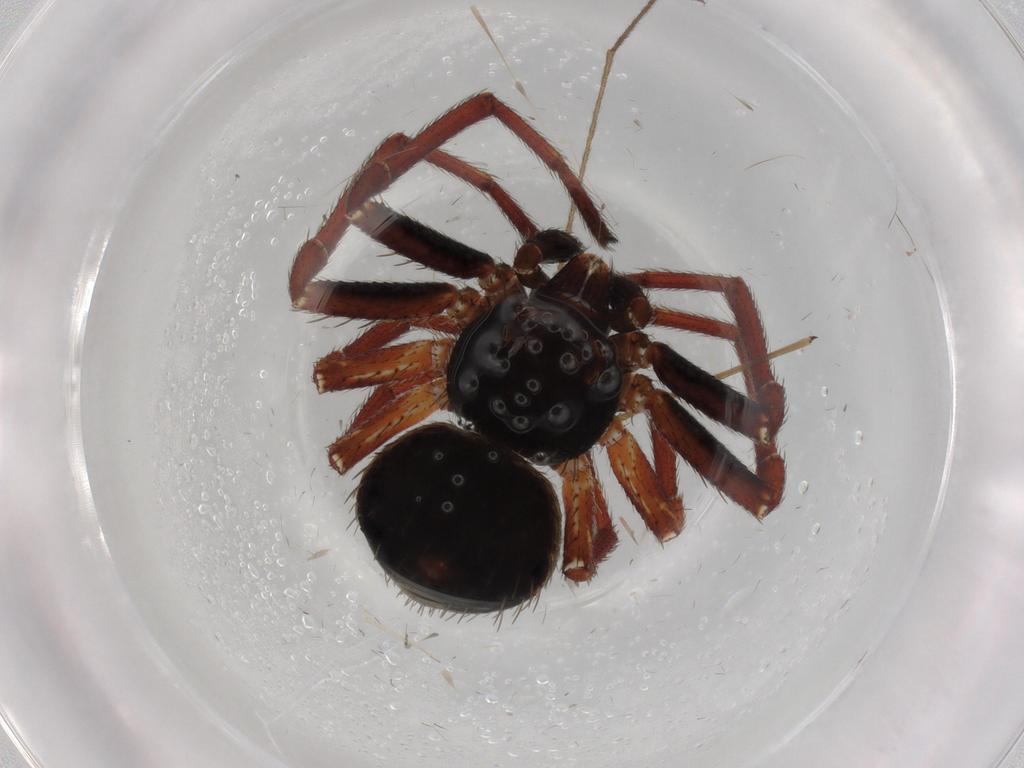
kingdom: Animalia
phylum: Arthropoda
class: Arachnida
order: Araneae
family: Thomisidae
